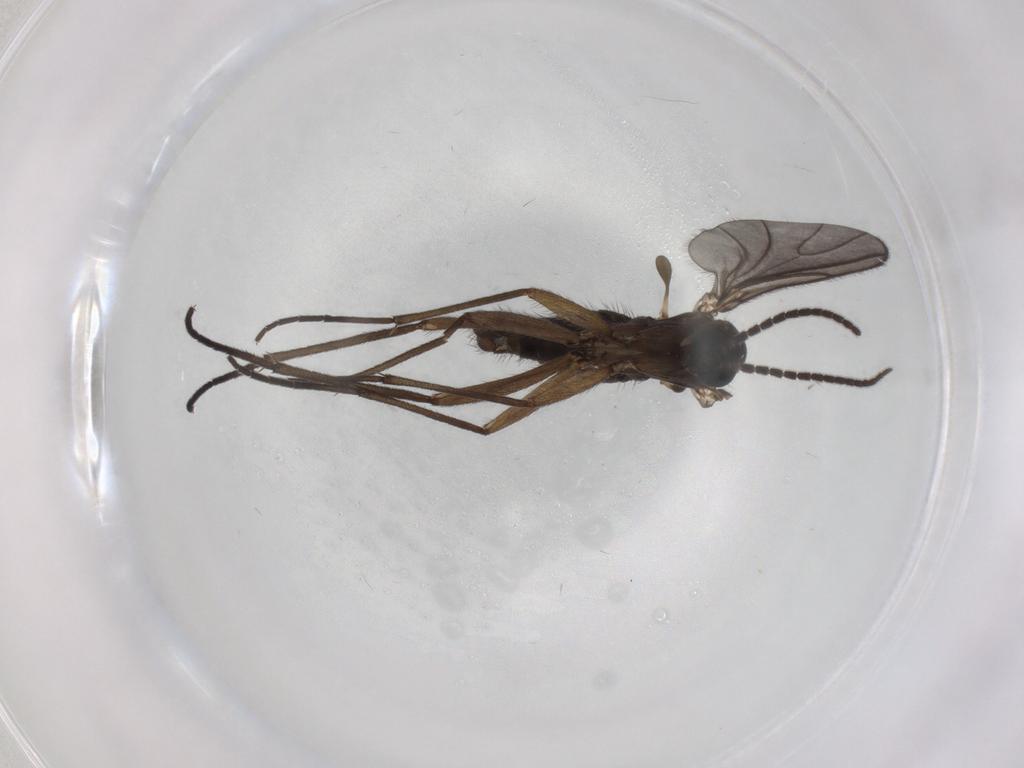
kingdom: Animalia
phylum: Arthropoda
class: Insecta
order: Diptera
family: Sciaridae
